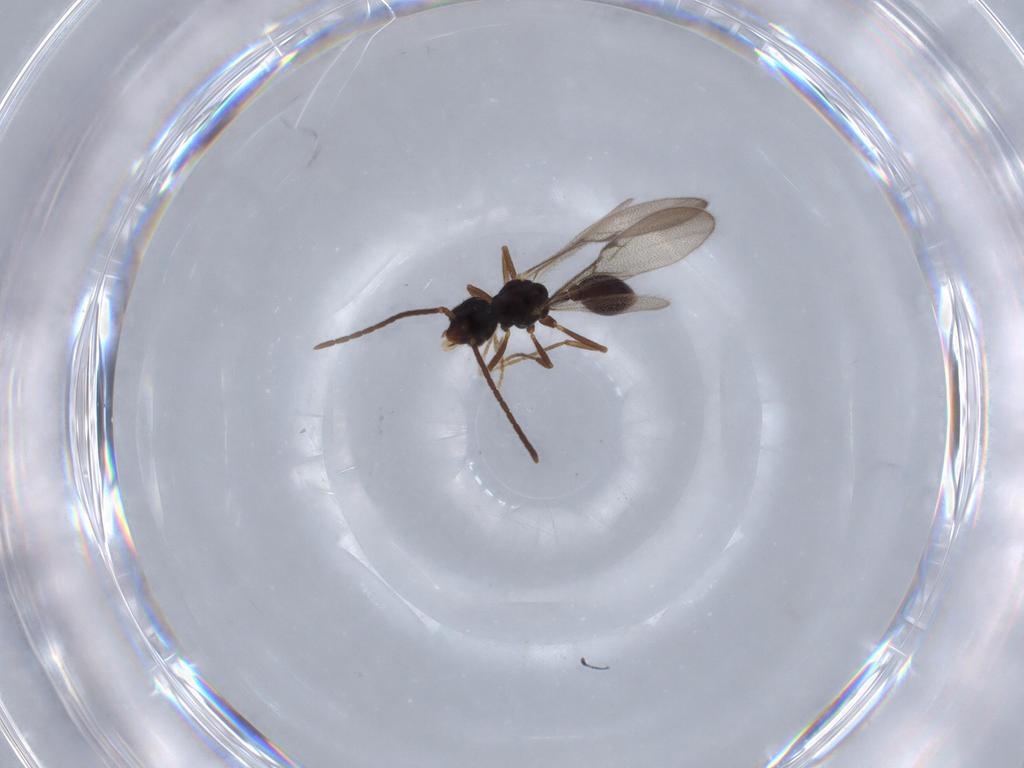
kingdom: Animalia
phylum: Arthropoda
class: Insecta
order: Hymenoptera
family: Formicidae
